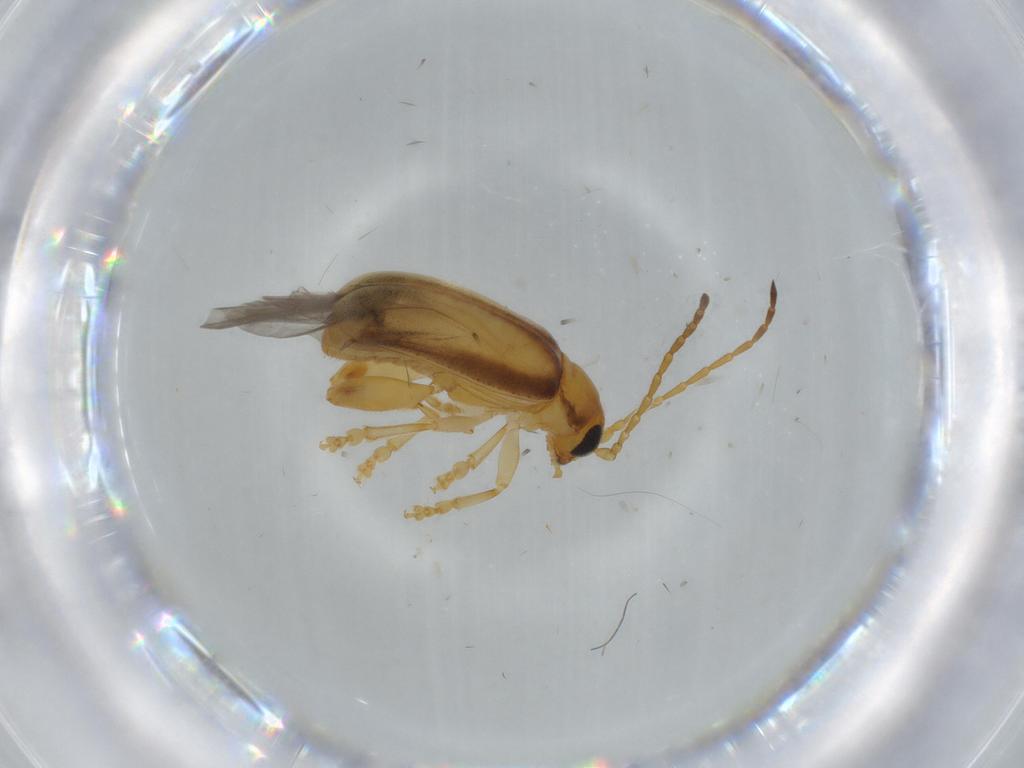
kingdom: Animalia
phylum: Arthropoda
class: Insecta
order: Coleoptera
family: Chrysomelidae
